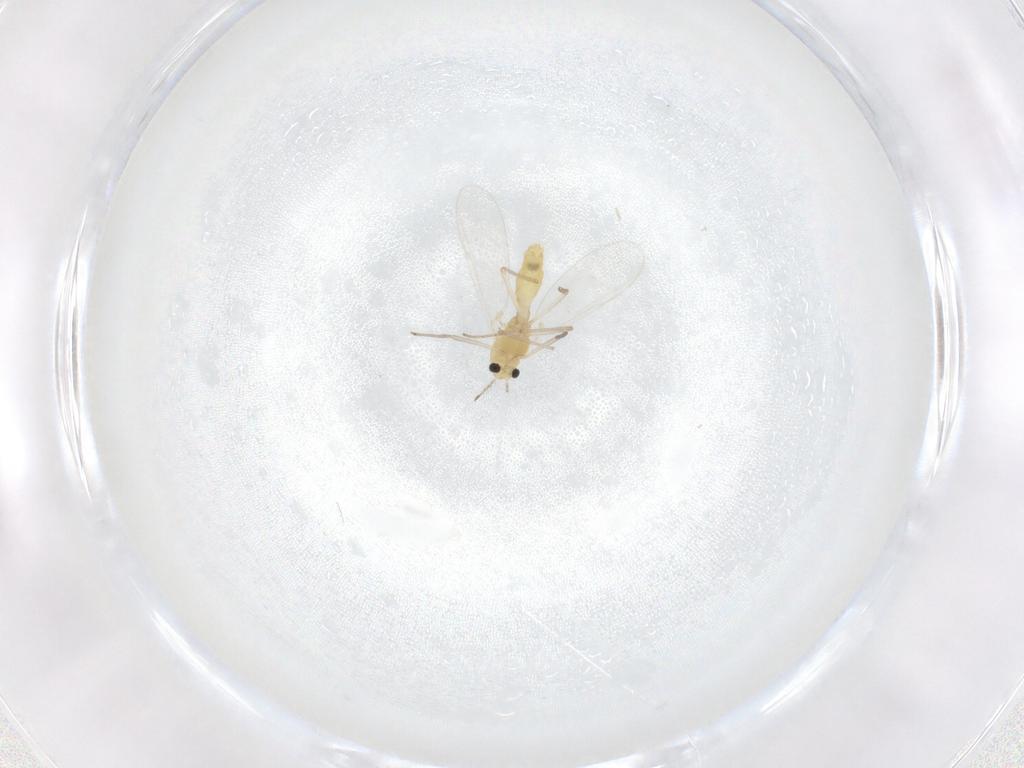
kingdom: Animalia
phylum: Arthropoda
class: Insecta
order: Diptera
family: Chironomidae
